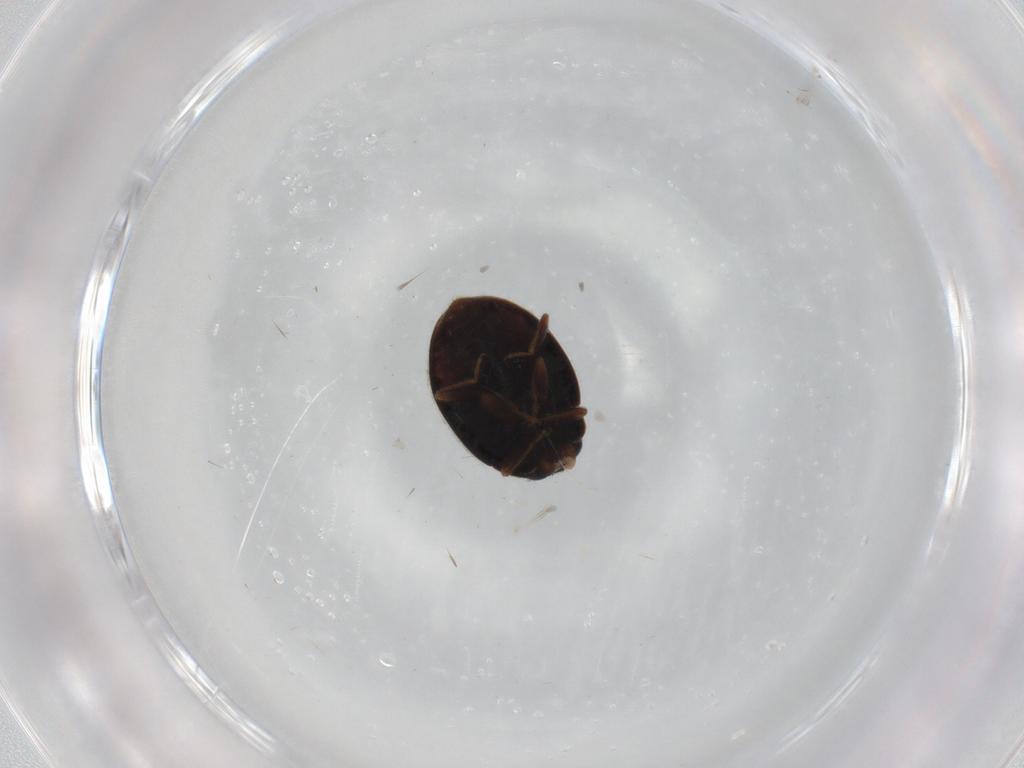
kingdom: Animalia
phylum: Arthropoda
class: Insecta
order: Coleoptera
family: Coccinellidae
